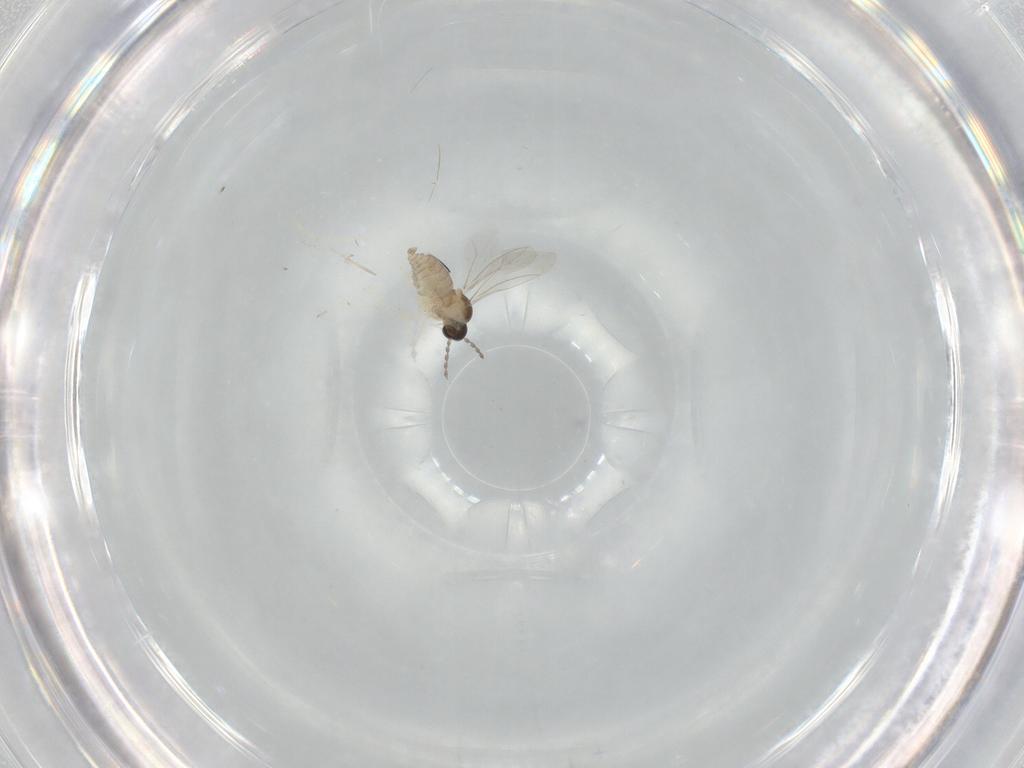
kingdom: Animalia
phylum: Arthropoda
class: Insecta
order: Diptera
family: Cecidomyiidae
